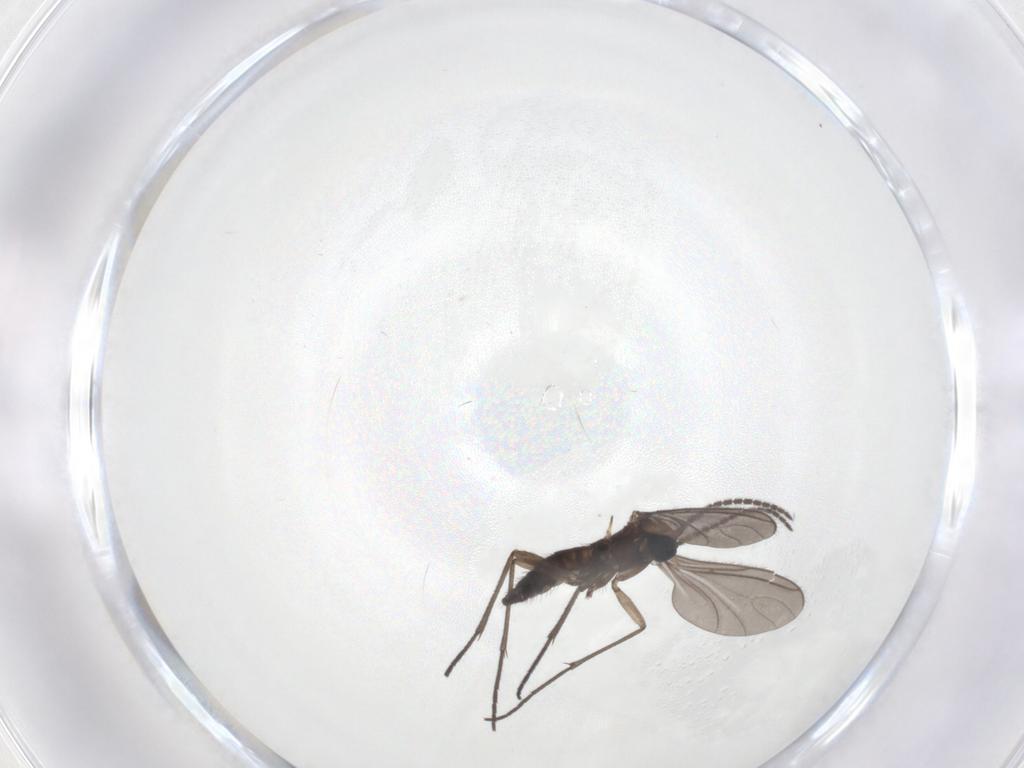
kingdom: Animalia
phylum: Arthropoda
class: Insecta
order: Diptera
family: Sciaridae
